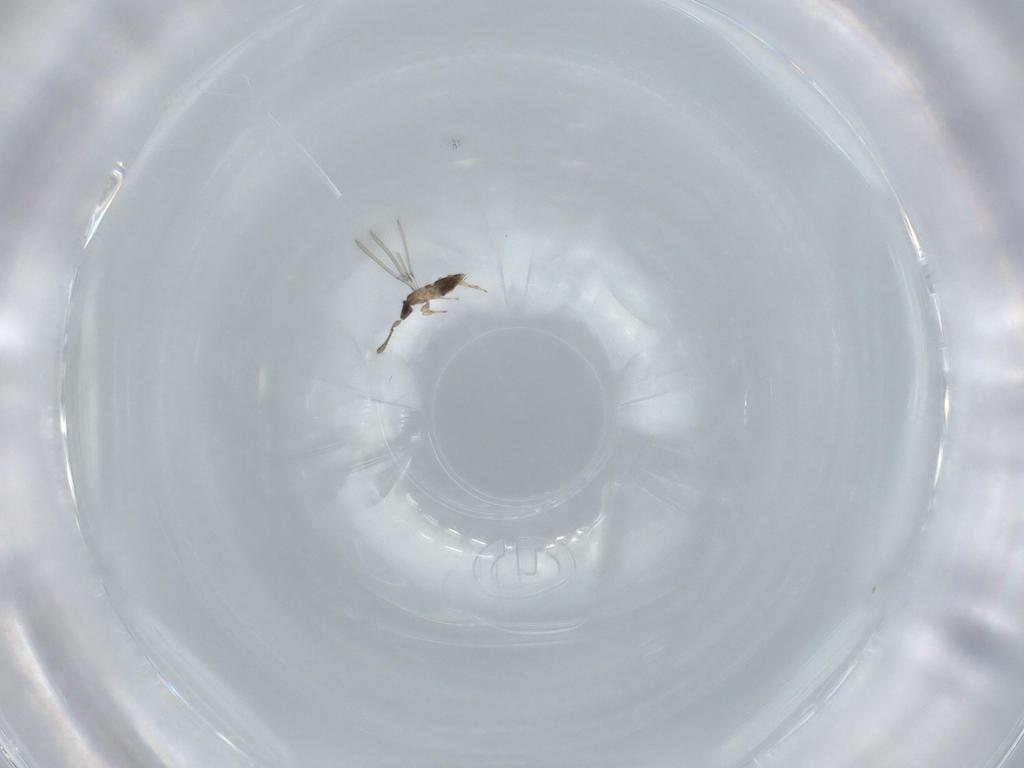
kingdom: Animalia
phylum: Arthropoda
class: Insecta
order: Hymenoptera
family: Mymaridae
